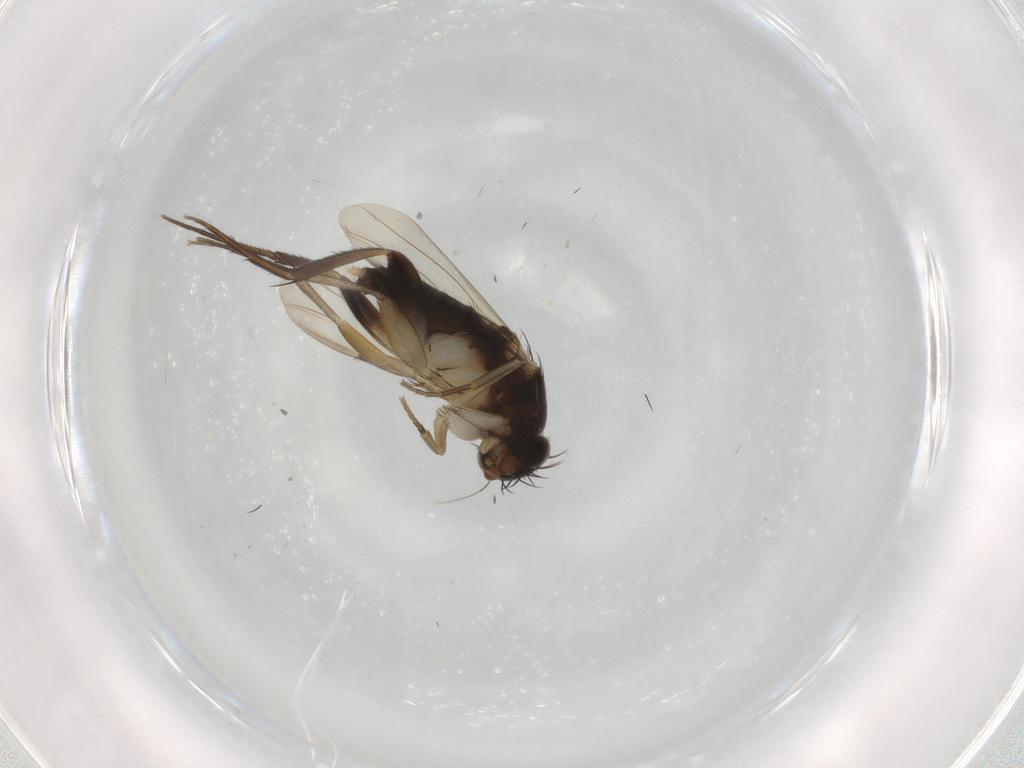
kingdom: Animalia
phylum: Arthropoda
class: Insecta
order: Diptera
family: Phoridae
